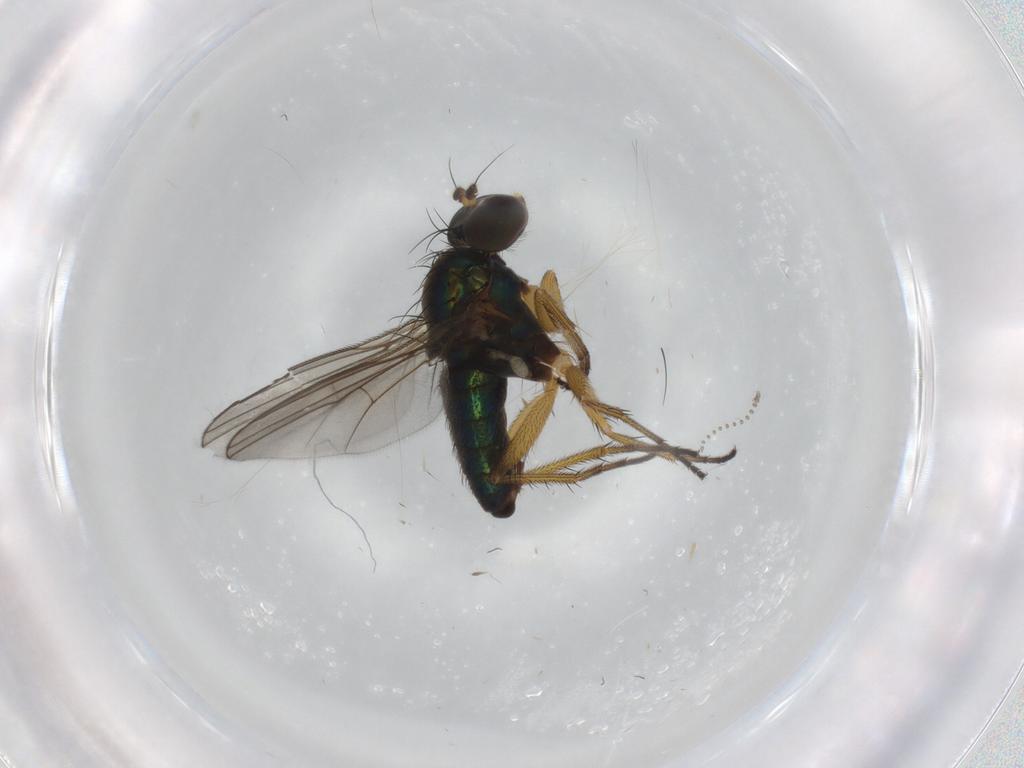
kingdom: Animalia
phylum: Arthropoda
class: Insecta
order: Diptera
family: Dolichopodidae
